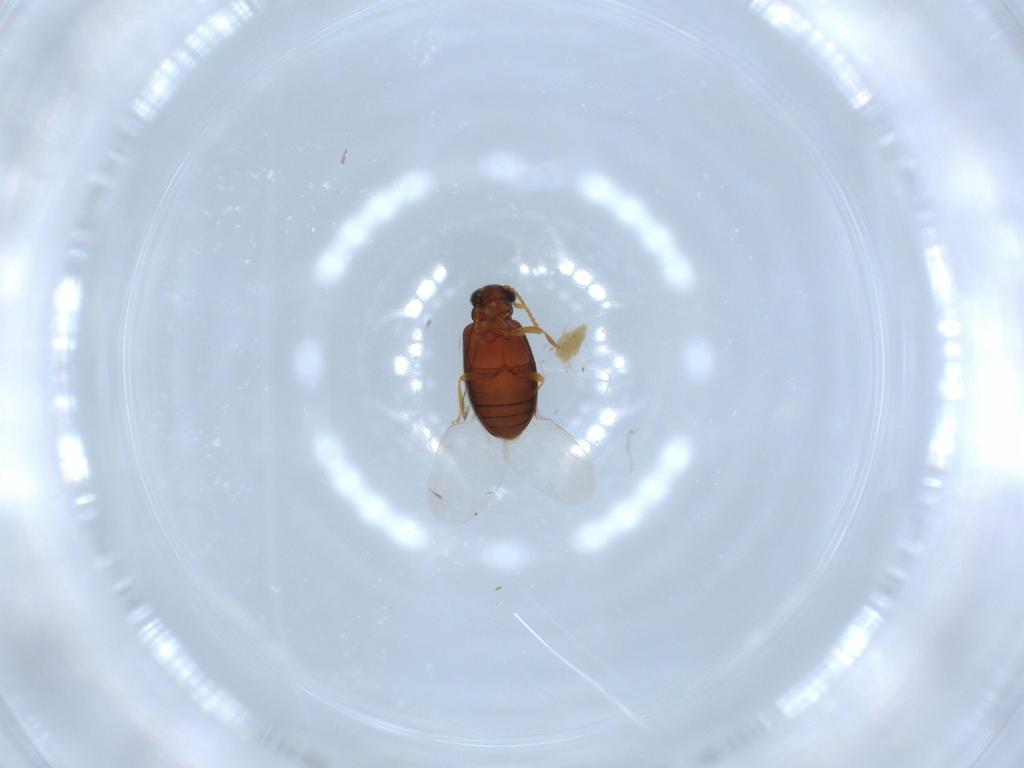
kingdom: Animalia
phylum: Arthropoda
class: Insecta
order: Coleoptera
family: Aderidae
